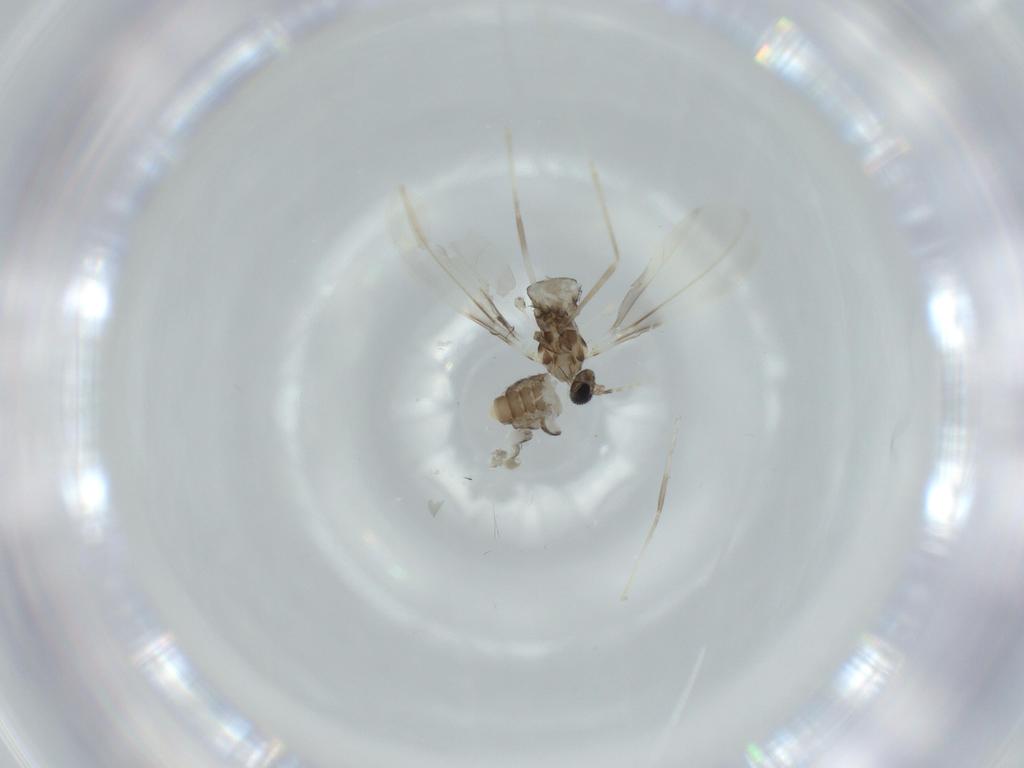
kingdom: Animalia
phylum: Arthropoda
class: Insecta
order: Diptera
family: Cecidomyiidae
